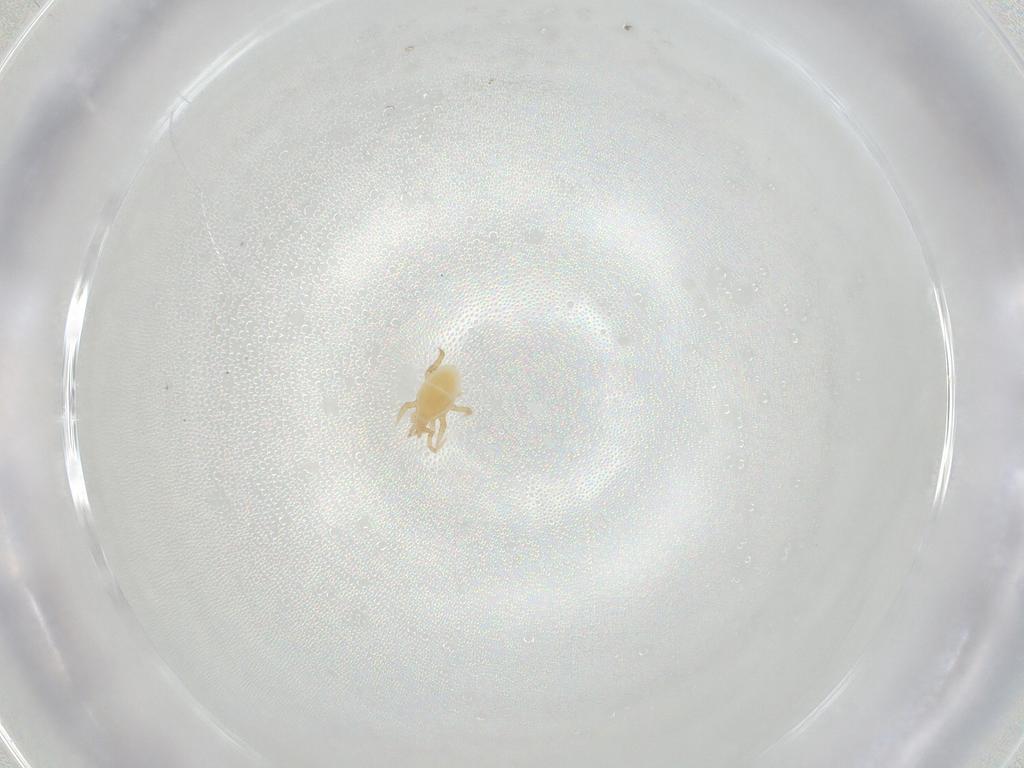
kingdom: Animalia
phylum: Arthropoda
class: Arachnida
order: Mesostigmata
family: Parasitidae
